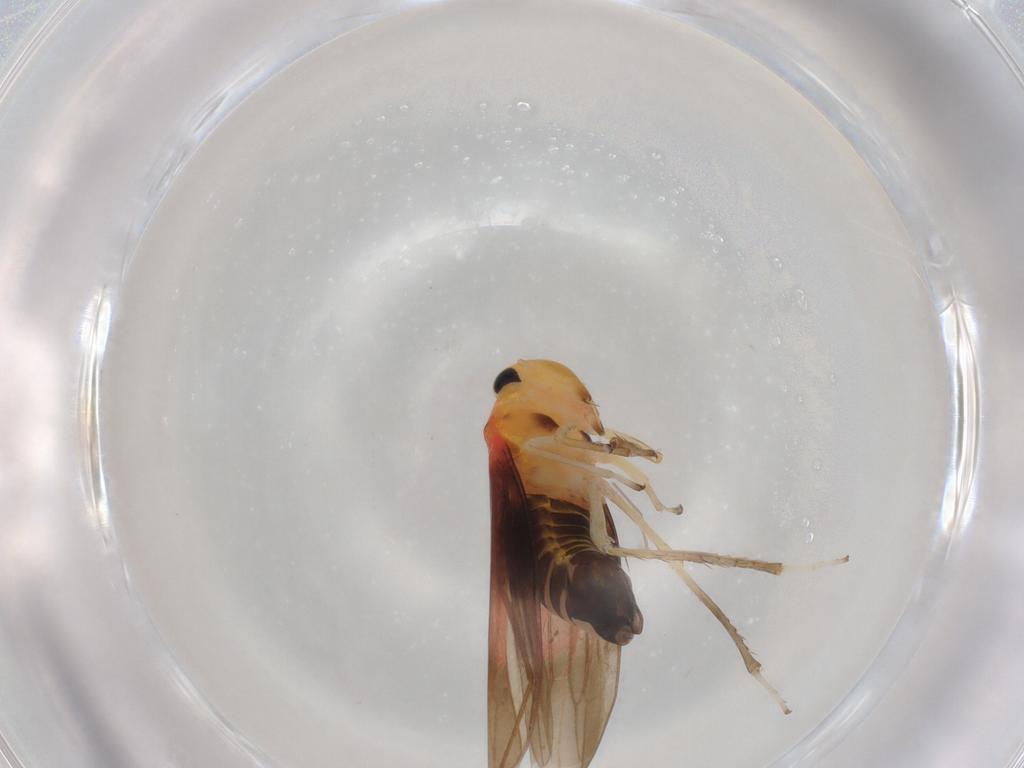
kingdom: Animalia
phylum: Arthropoda
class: Insecta
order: Hemiptera
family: Cicadellidae
